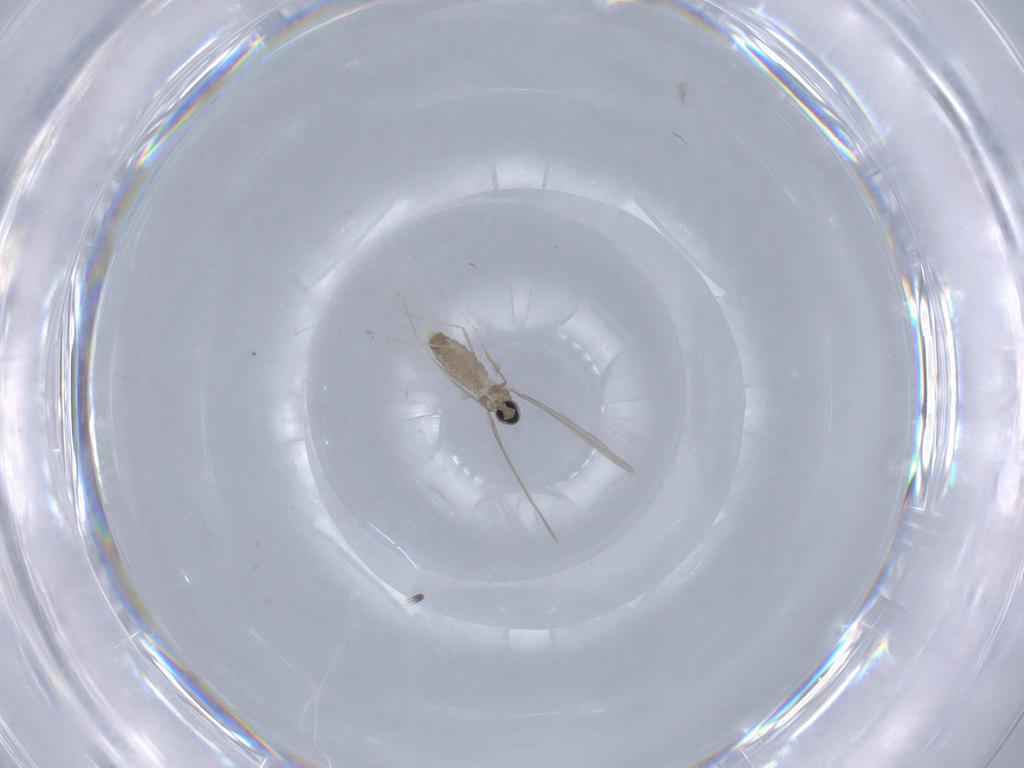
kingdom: Animalia
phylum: Arthropoda
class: Insecta
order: Diptera
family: Cecidomyiidae
